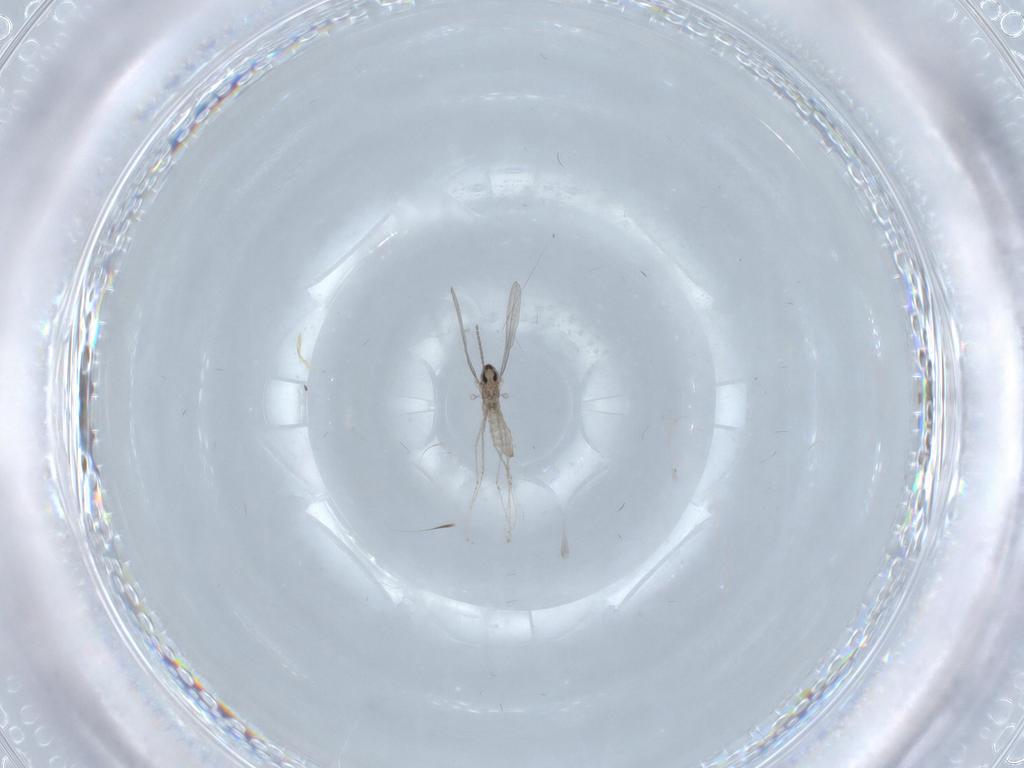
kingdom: Animalia
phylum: Arthropoda
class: Insecta
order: Diptera
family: Cecidomyiidae
